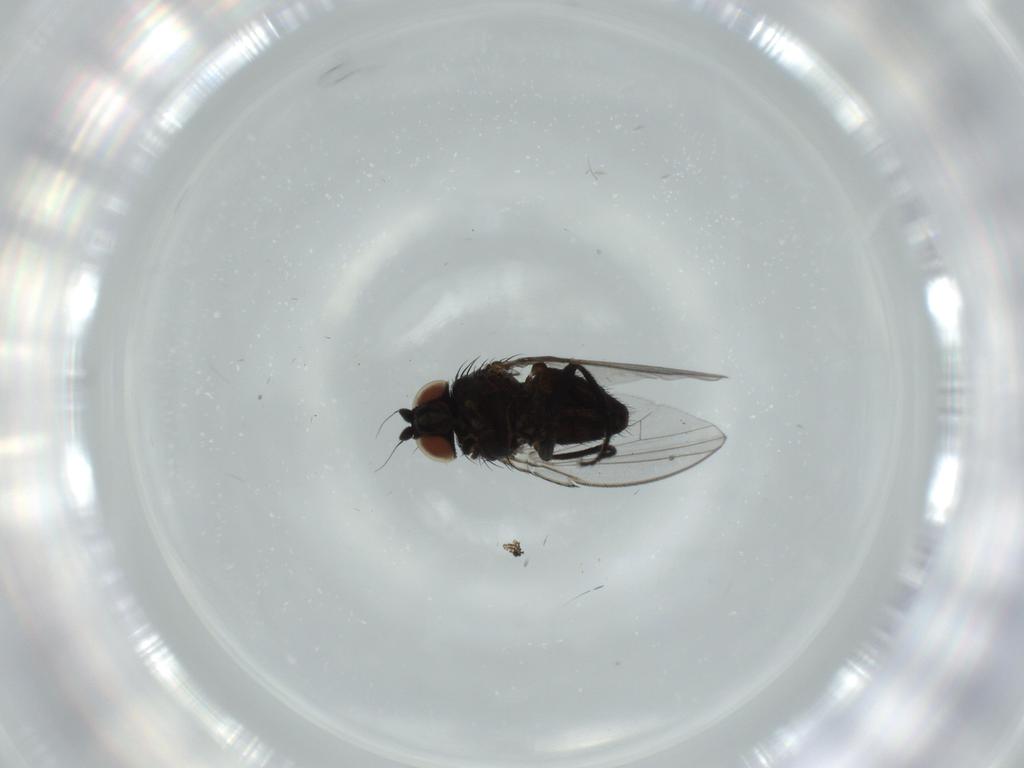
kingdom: Animalia
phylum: Arthropoda
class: Insecta
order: Diptera
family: Milichiidae
